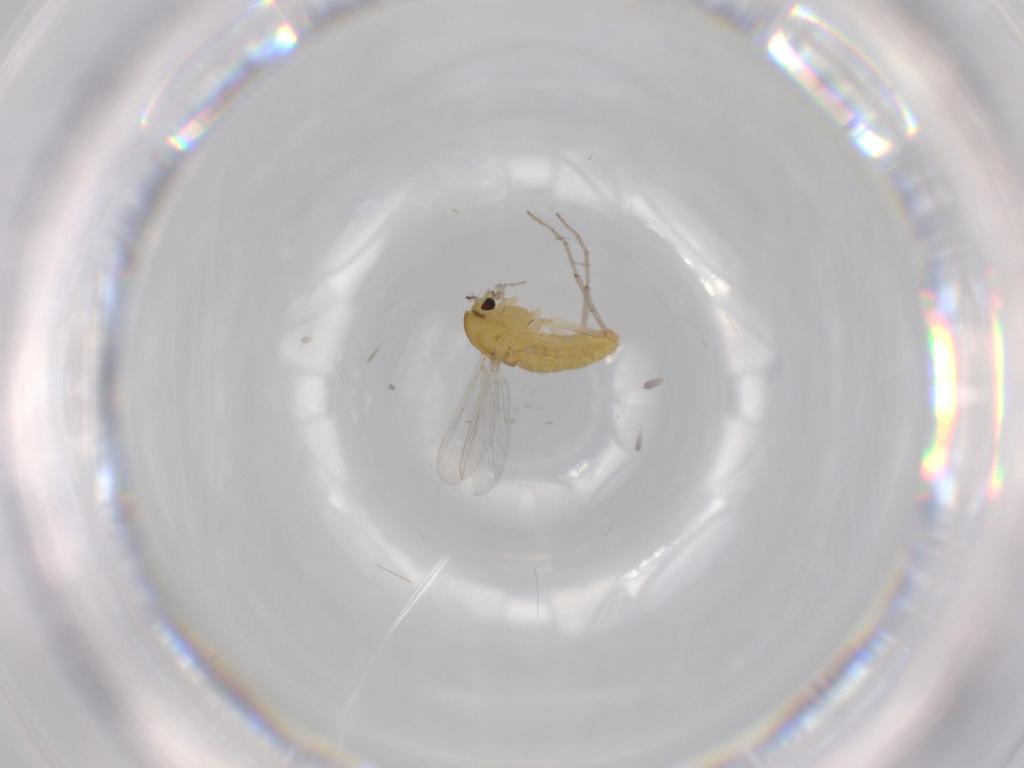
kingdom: Animalia
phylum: Arthropoda
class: Insecta
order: Diptera
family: Chironomidae
